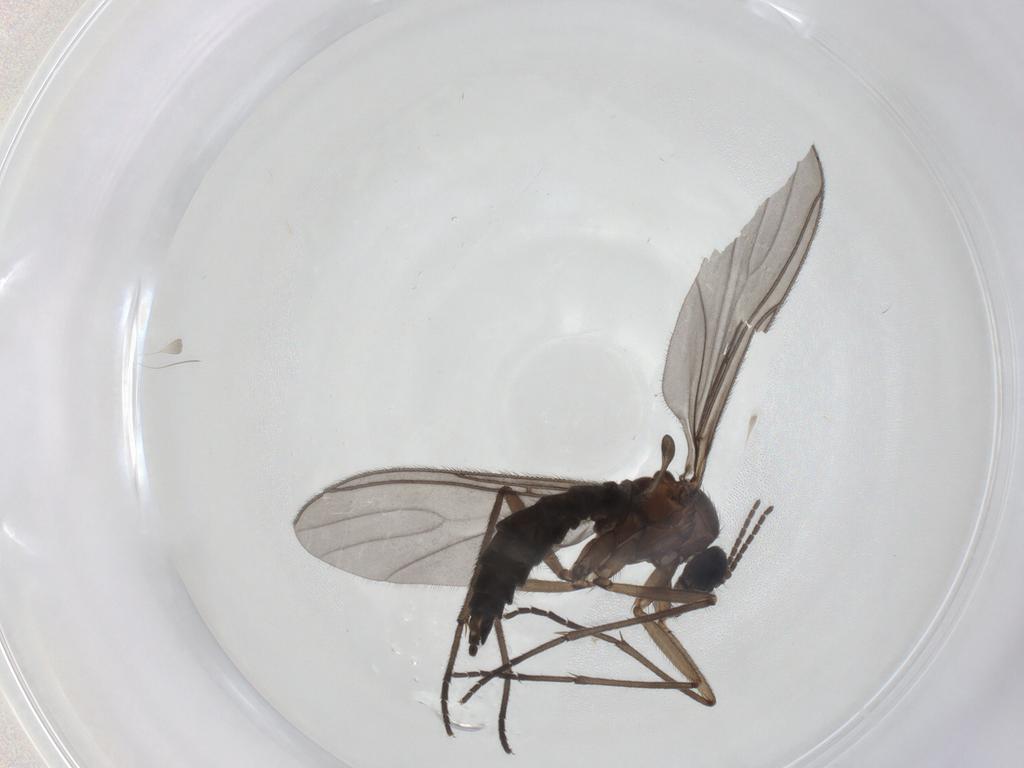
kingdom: Animalia
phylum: Arthropoda
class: Insecta
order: Diptera
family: Sciaridae
